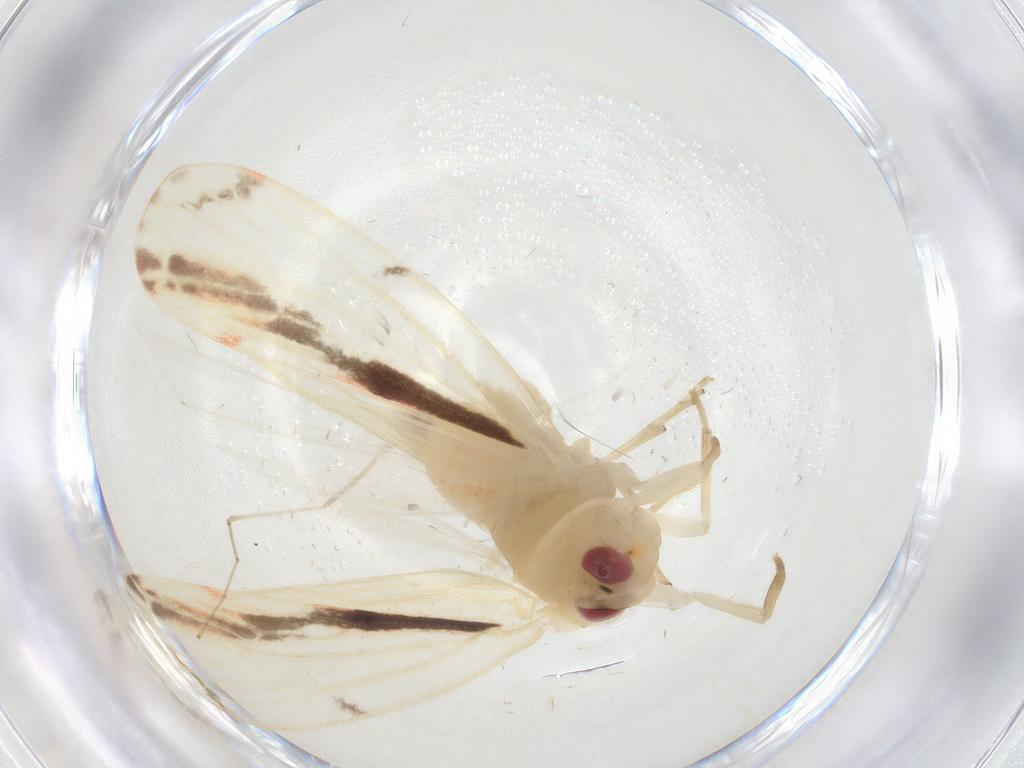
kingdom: Animalia
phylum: Arthropoda
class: Insecta
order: Hemiptera
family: Derbidae
